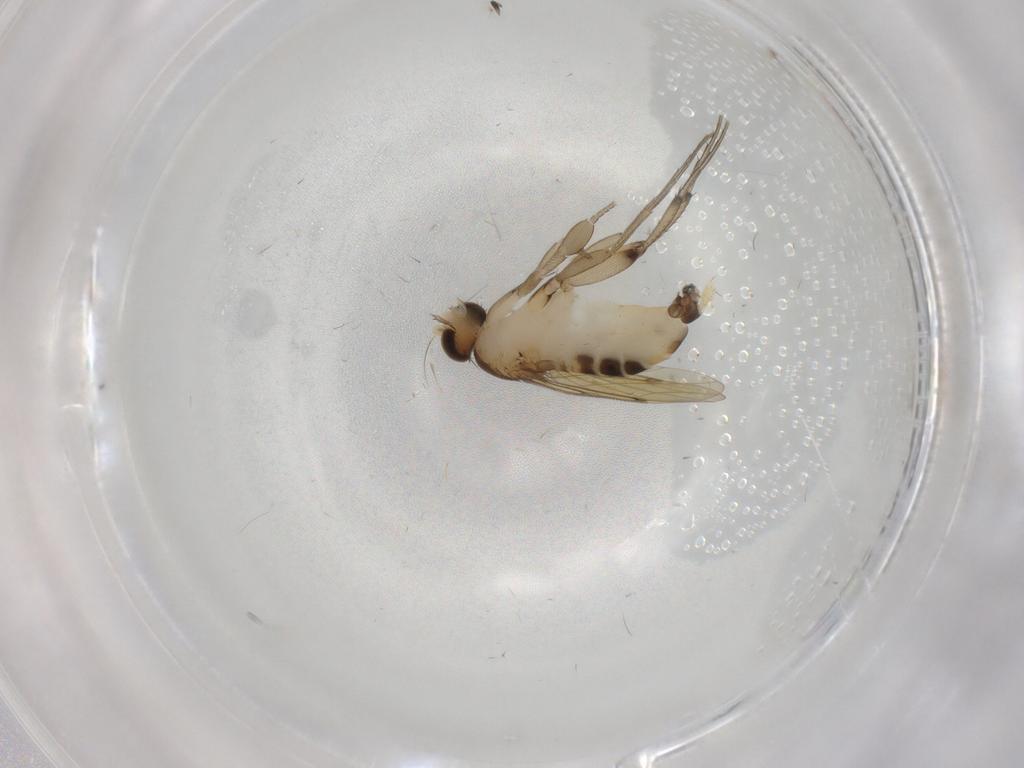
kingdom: Animalia
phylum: Arthropoda
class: Insecta
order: Diptera
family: Phoridae
